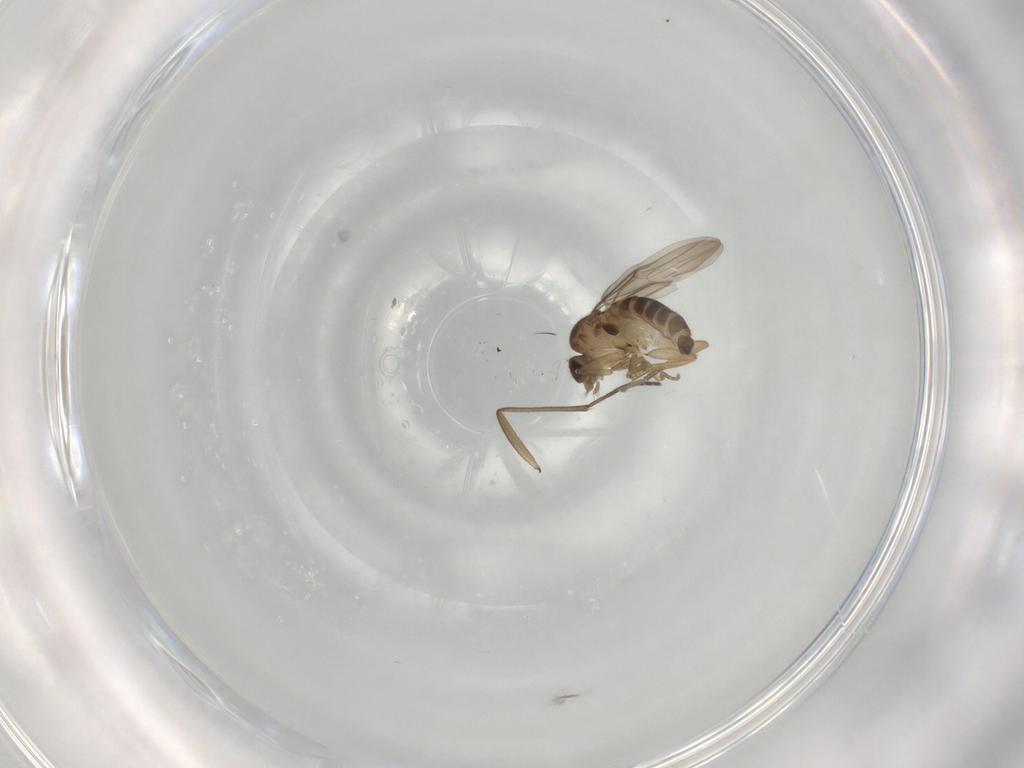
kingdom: Animalia
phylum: Arthropoda
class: Insecta
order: Diptera
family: Phoridae
